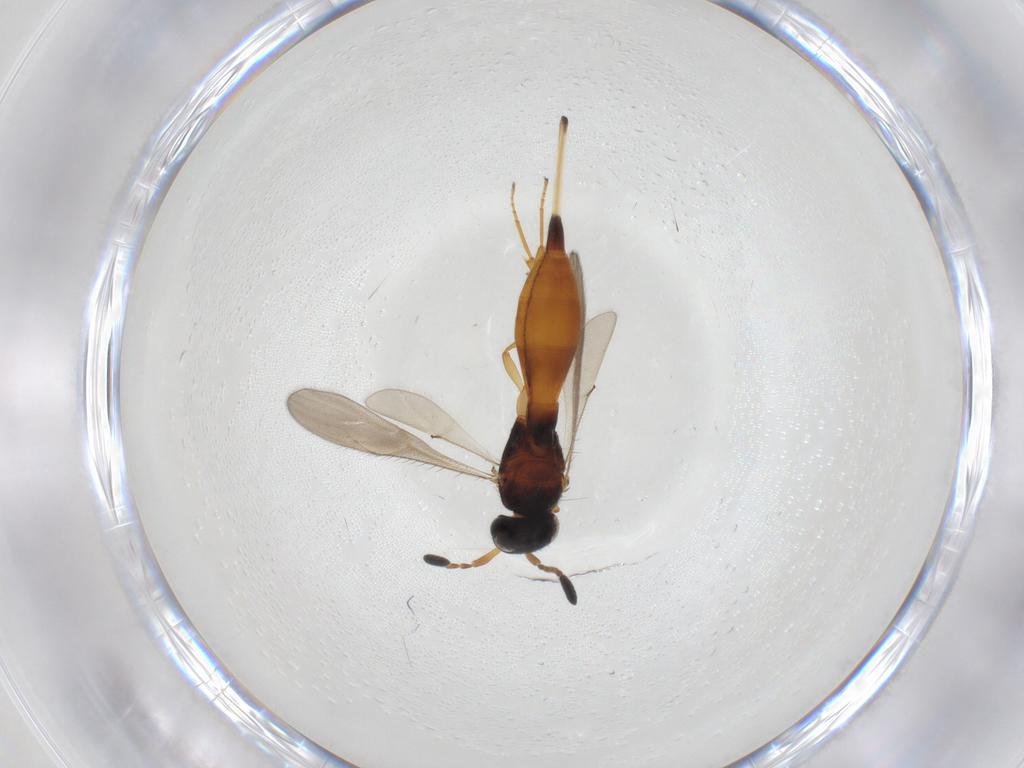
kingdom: Animalia
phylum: Arthropoda
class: Insecta
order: Hymenoptera
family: Scelionidae
